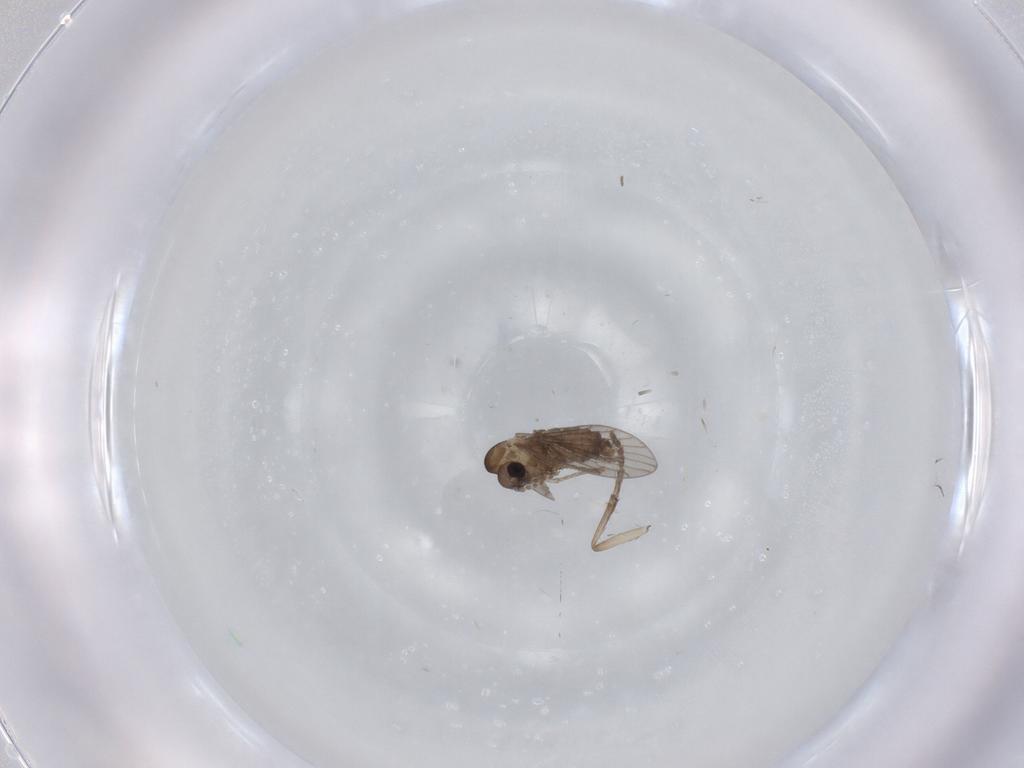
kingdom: Animalia
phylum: Arthropoda
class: Insecta
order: Diptera
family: Psychodidae
